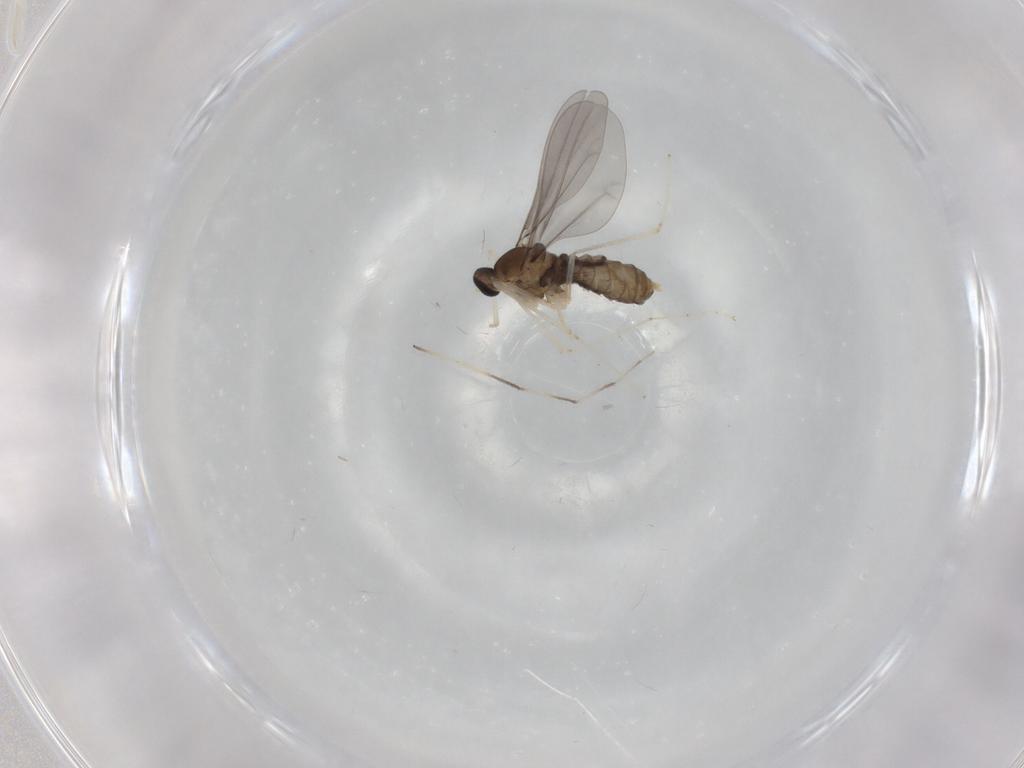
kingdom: Animalia
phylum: Arthropoda
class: Insecta
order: Diptera
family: Cecidomyiidae
